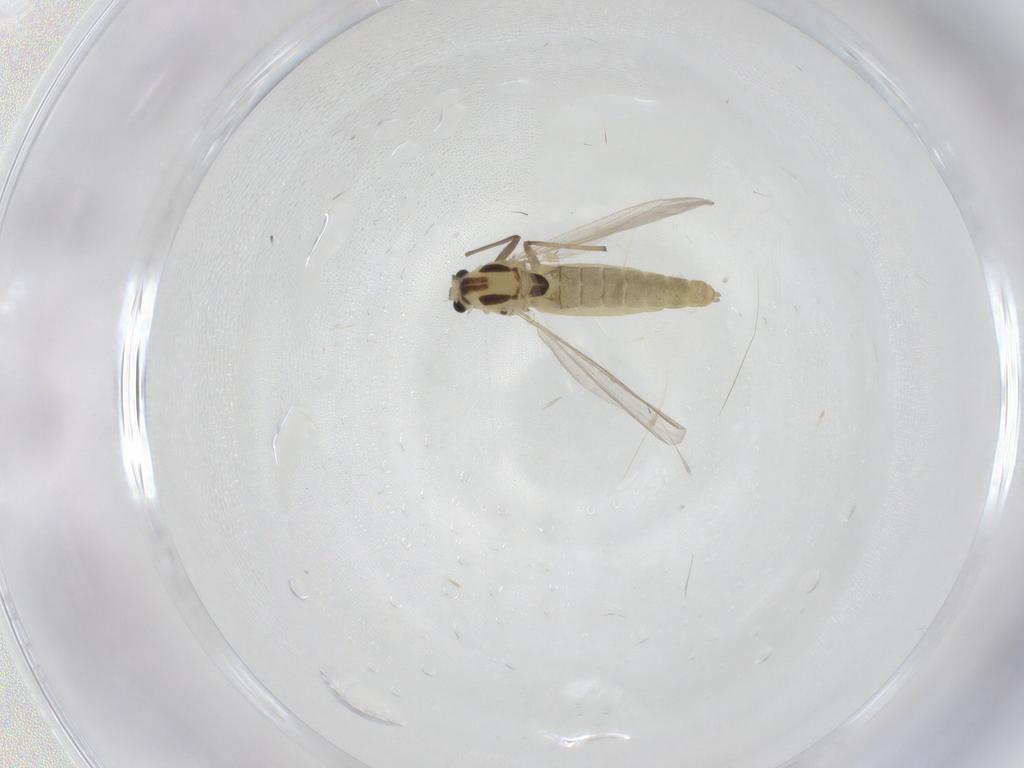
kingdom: Animalia
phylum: Arthropoda
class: Insecta
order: Diptera
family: Chironomidae
